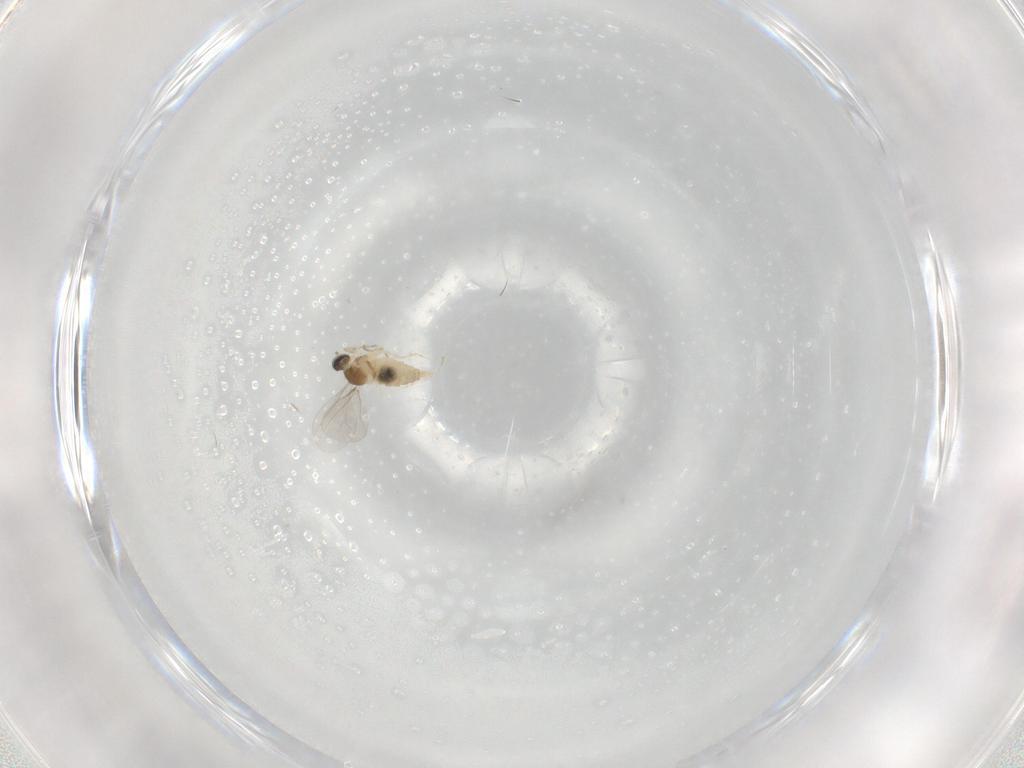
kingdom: Animalia
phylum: Arthropoda
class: Insecta
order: Diptera
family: Cecidomyiidae
